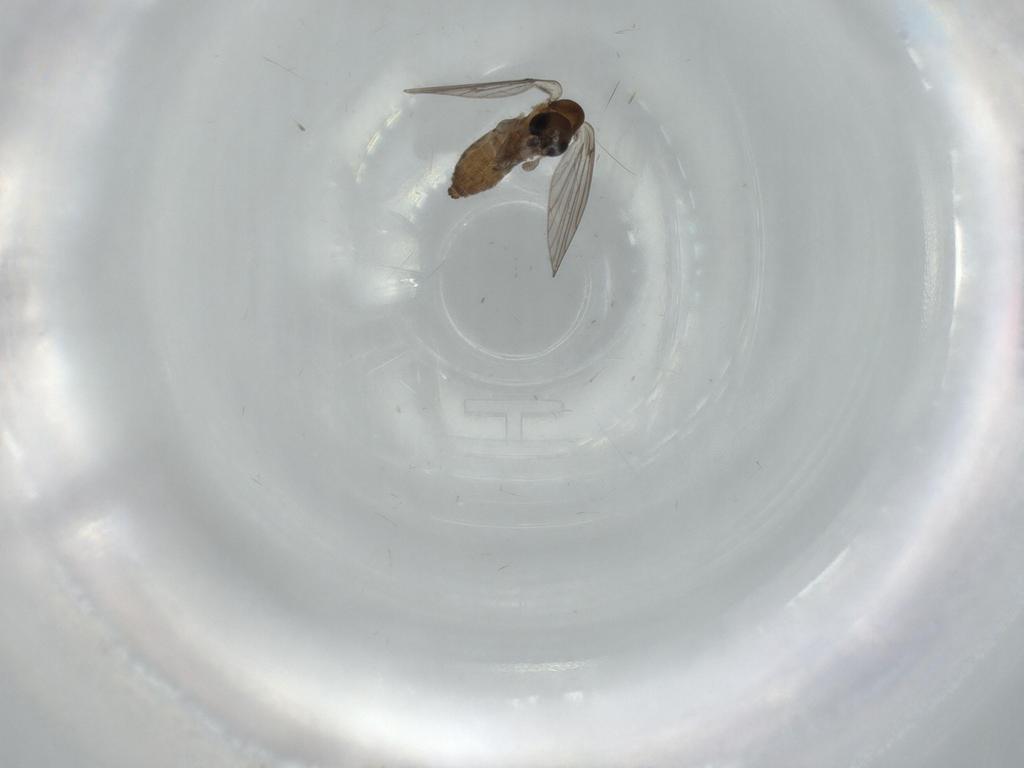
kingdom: Animalia
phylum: Arthropoda
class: Insecta
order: Diptera
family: Psychodidae
